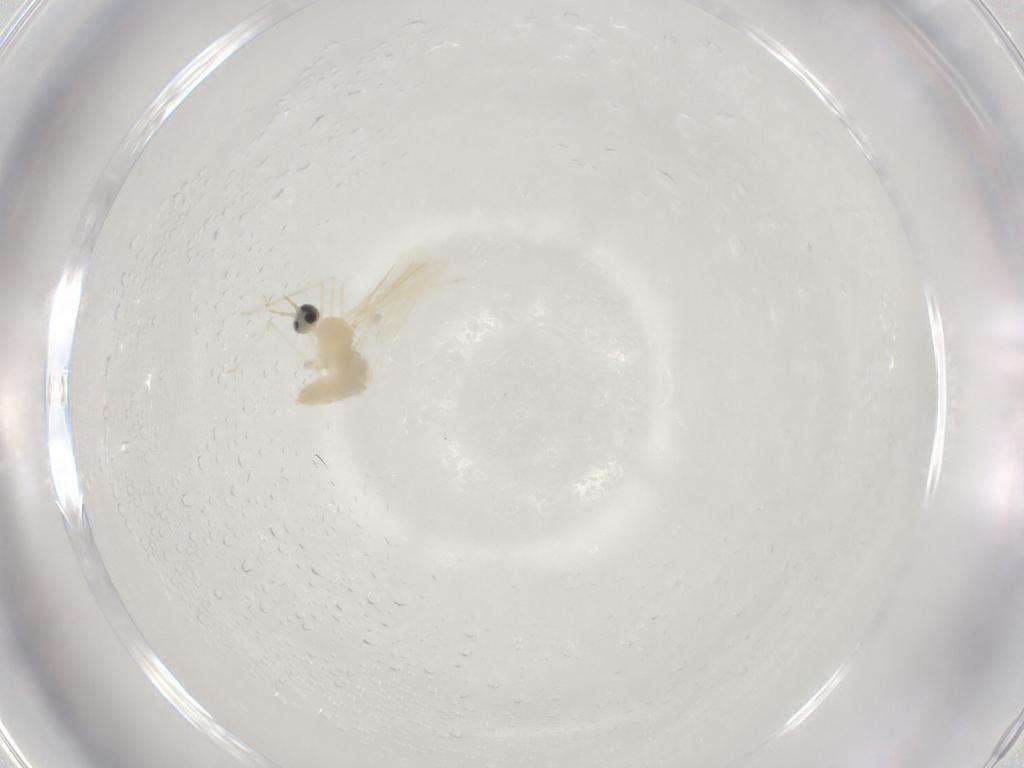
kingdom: Animalia
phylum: Arthropoda
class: Insecta
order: Diptera
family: Cecidomyiidae
